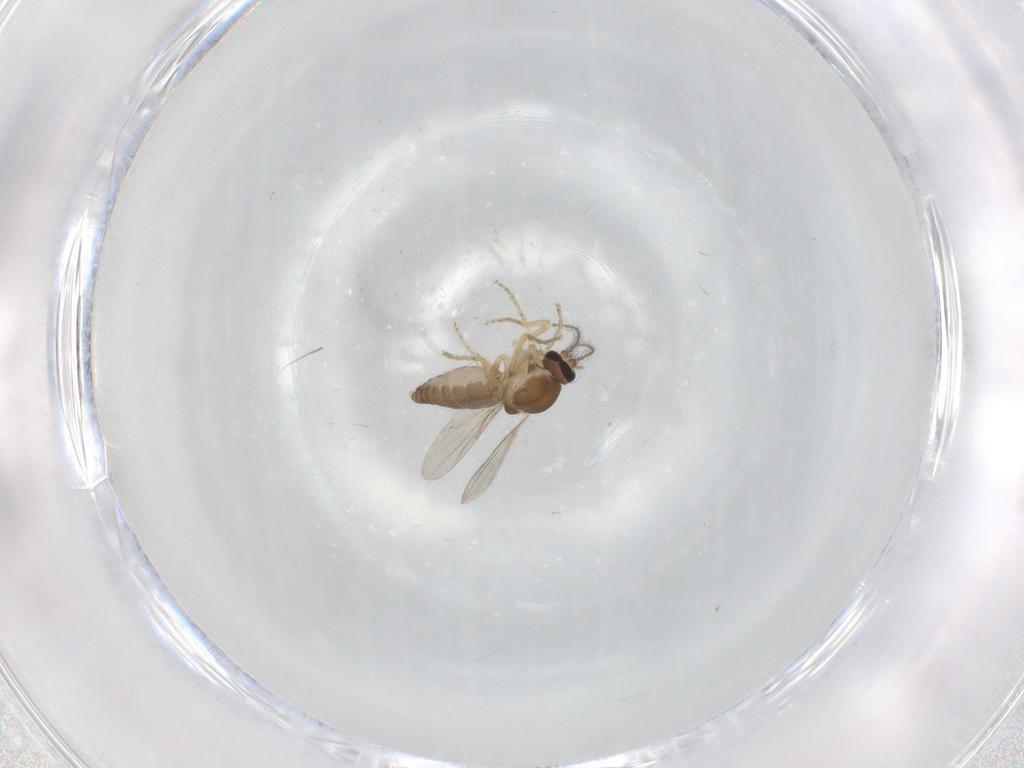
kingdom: Animalia
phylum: Arthropoda
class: Insecta
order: Diptera
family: Ceratopogonidae
